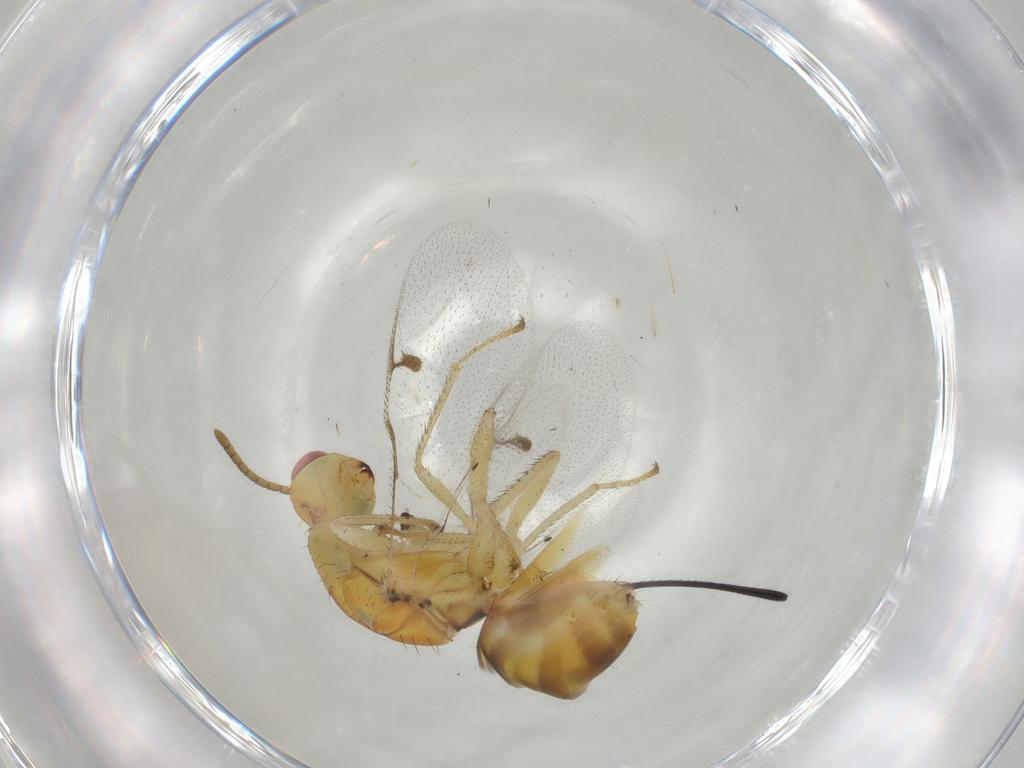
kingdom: Animalia
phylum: Arthropoda
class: Insecta
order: Hymenoptera
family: Megastigmidae
